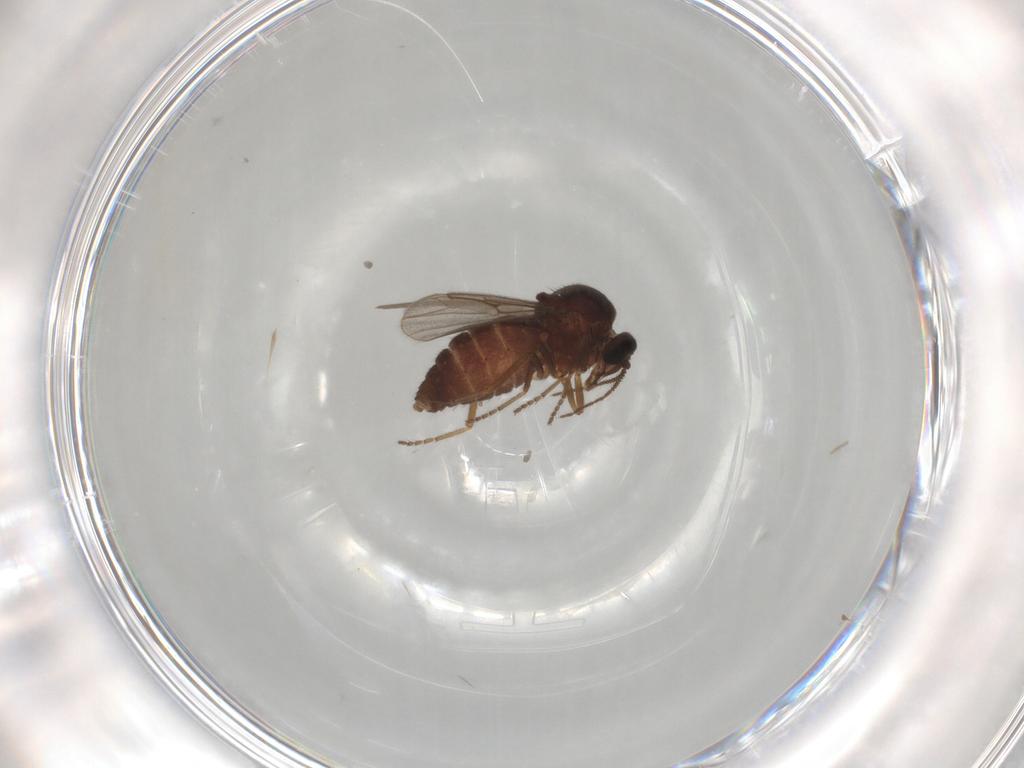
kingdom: Animalia
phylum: Arthropoda
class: Insecta
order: Diptera
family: Ceratopogonidae
